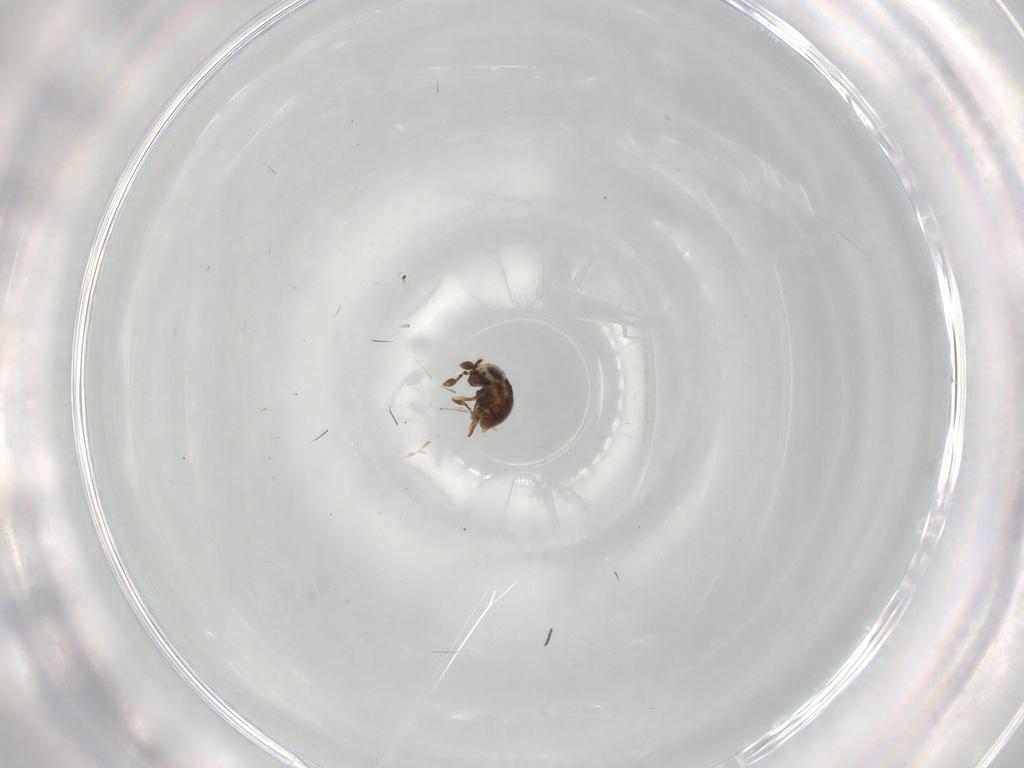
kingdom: Animalia
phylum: Arthropoda
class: Insecta
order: Hymenoptera
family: Scelionidae
